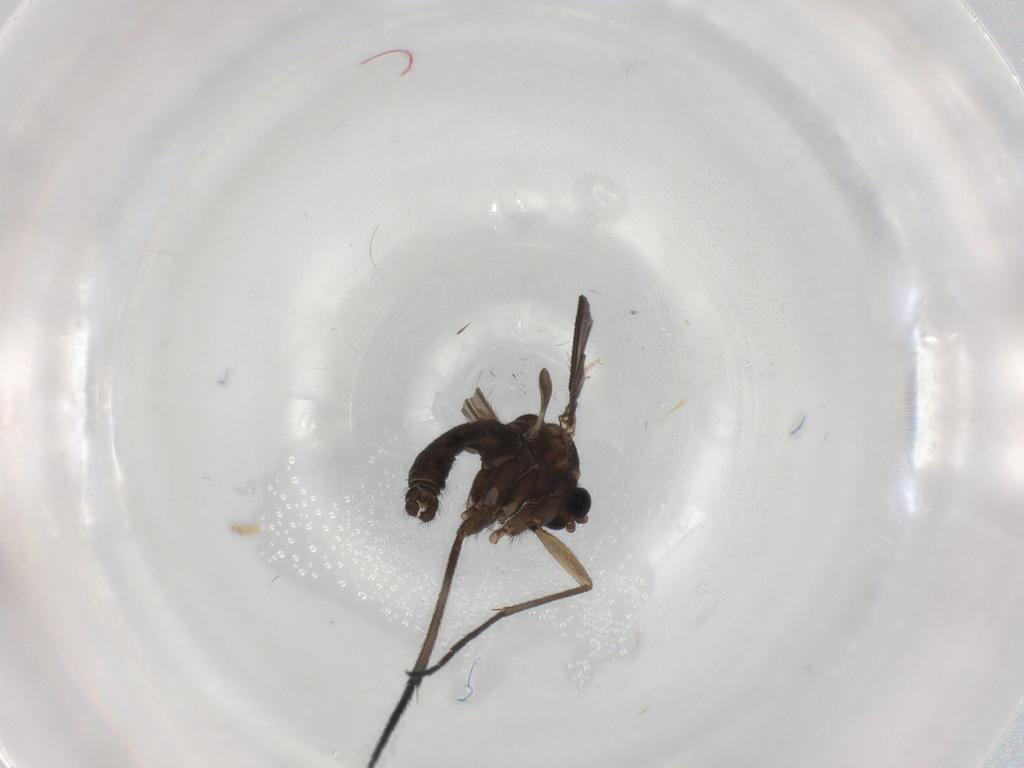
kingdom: Animalia
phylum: Arthropoda
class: Insecta
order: Diptera
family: Sciaridae
